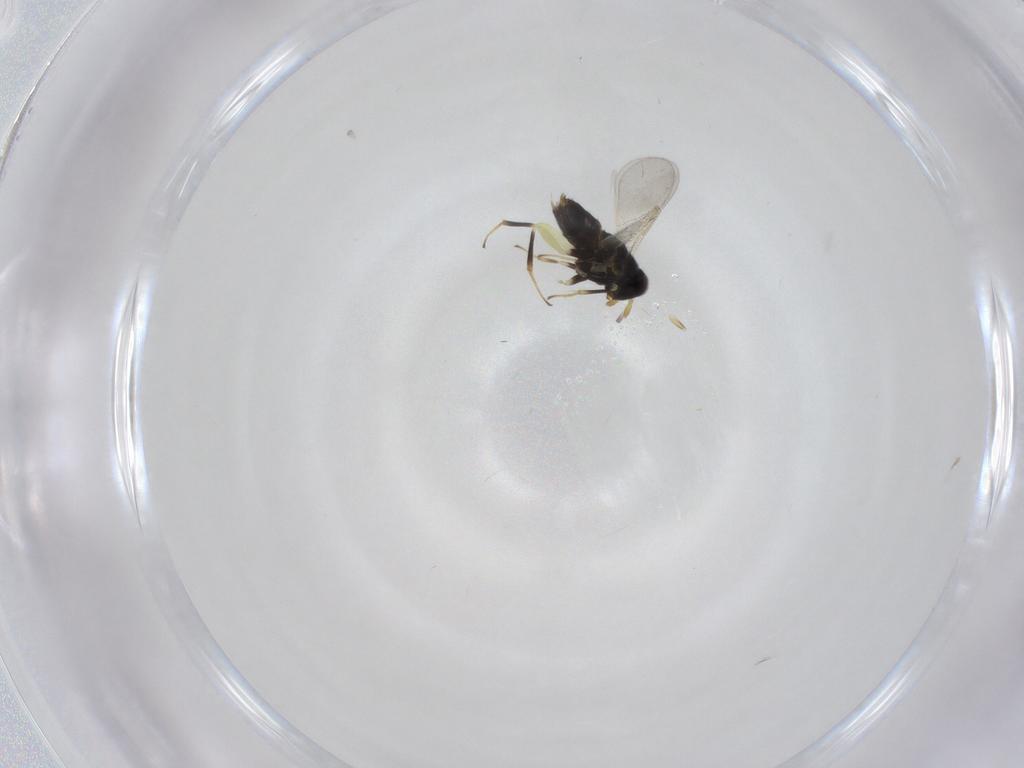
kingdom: Animalia
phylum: Arthropoda
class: Insecta
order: Hymenoptera
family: Aphelinidae
